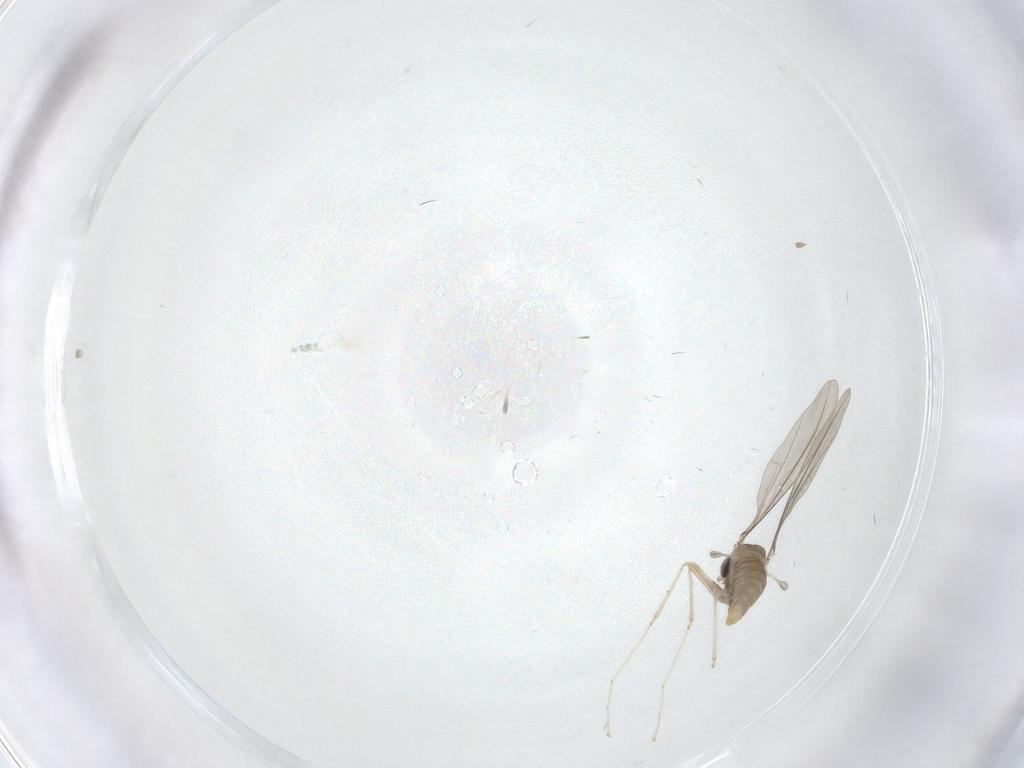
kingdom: Animalia
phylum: Arthropoda
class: Insecta
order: Diptera
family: Cecidomyiidae
